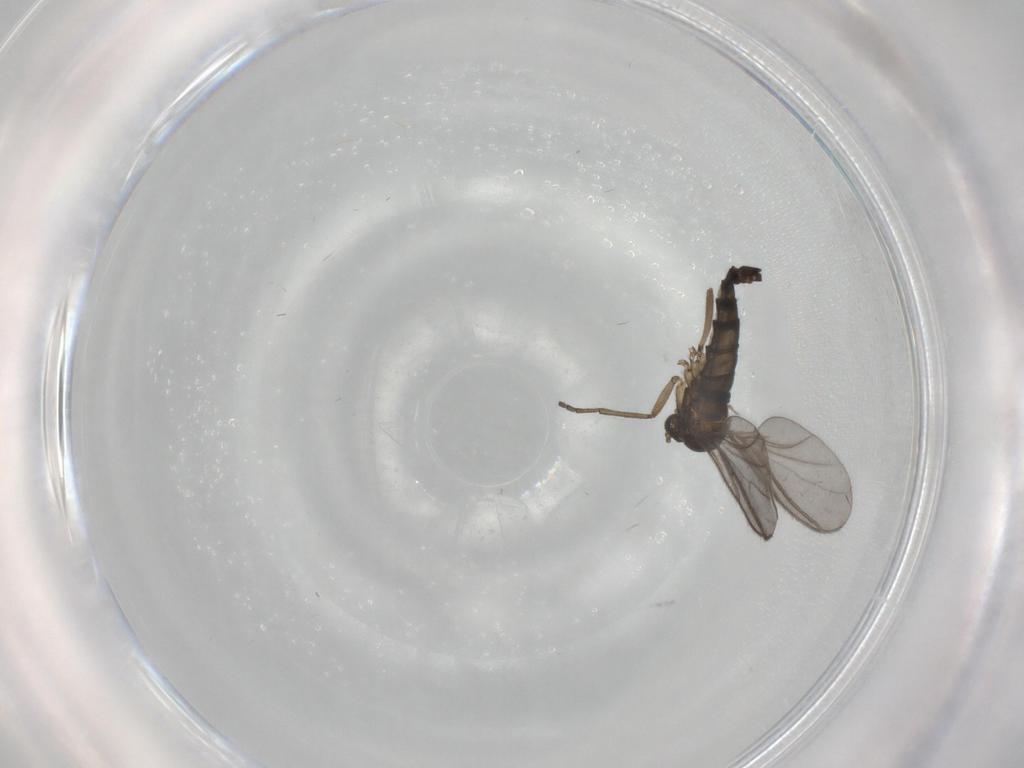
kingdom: Animalia
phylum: Arthropoda
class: Insecta
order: Diptera
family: Sciaridae
